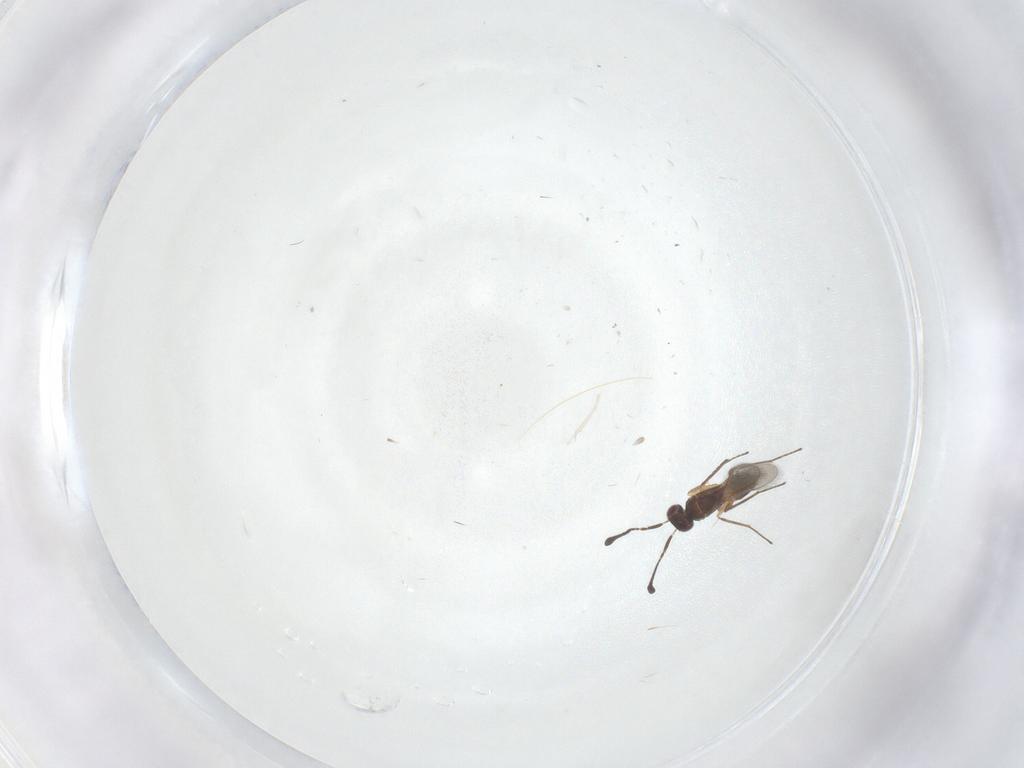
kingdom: Animalia
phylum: Arthropoda
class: Insecta
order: Hymenoptera
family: Mymaridae
